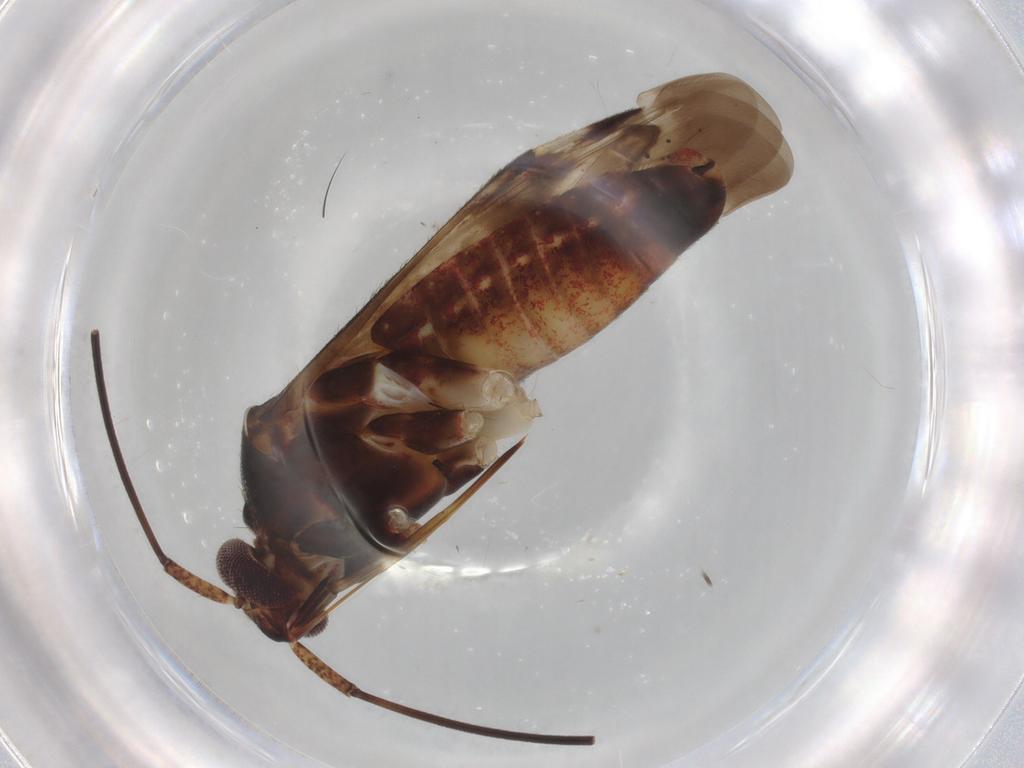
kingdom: Animalia
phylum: Arthropoda
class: Insecta
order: Hemiptera
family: Miridae
